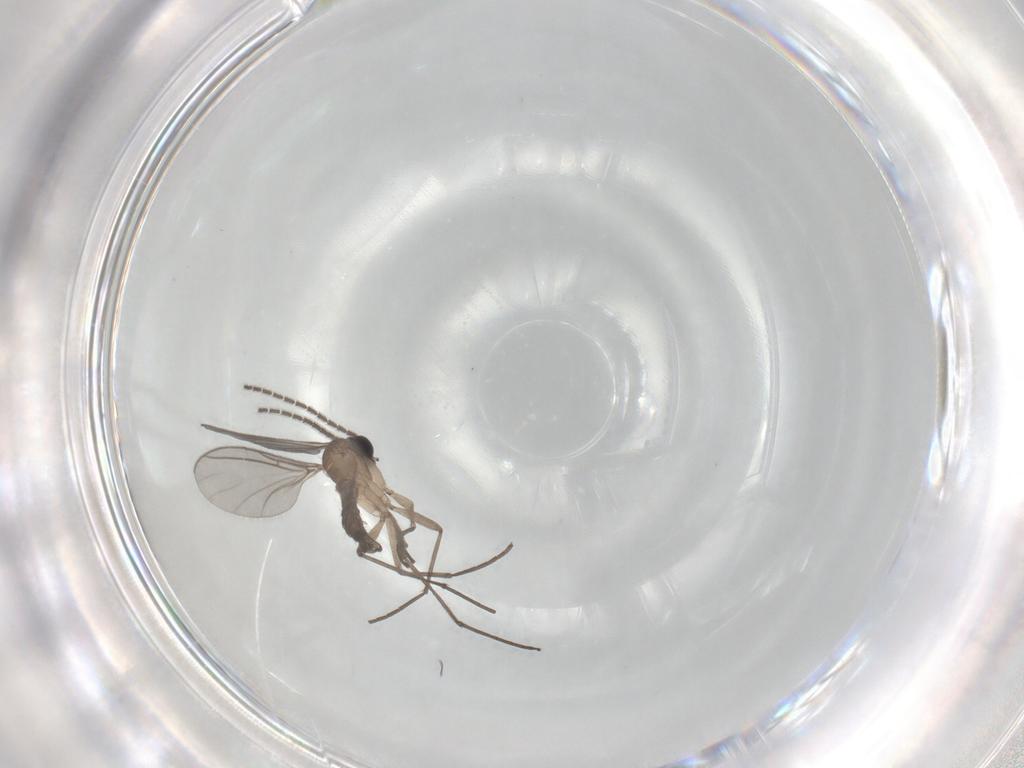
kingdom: Animalia
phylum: Arthropoda
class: Insecta
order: Diptera
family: Sciaridae
